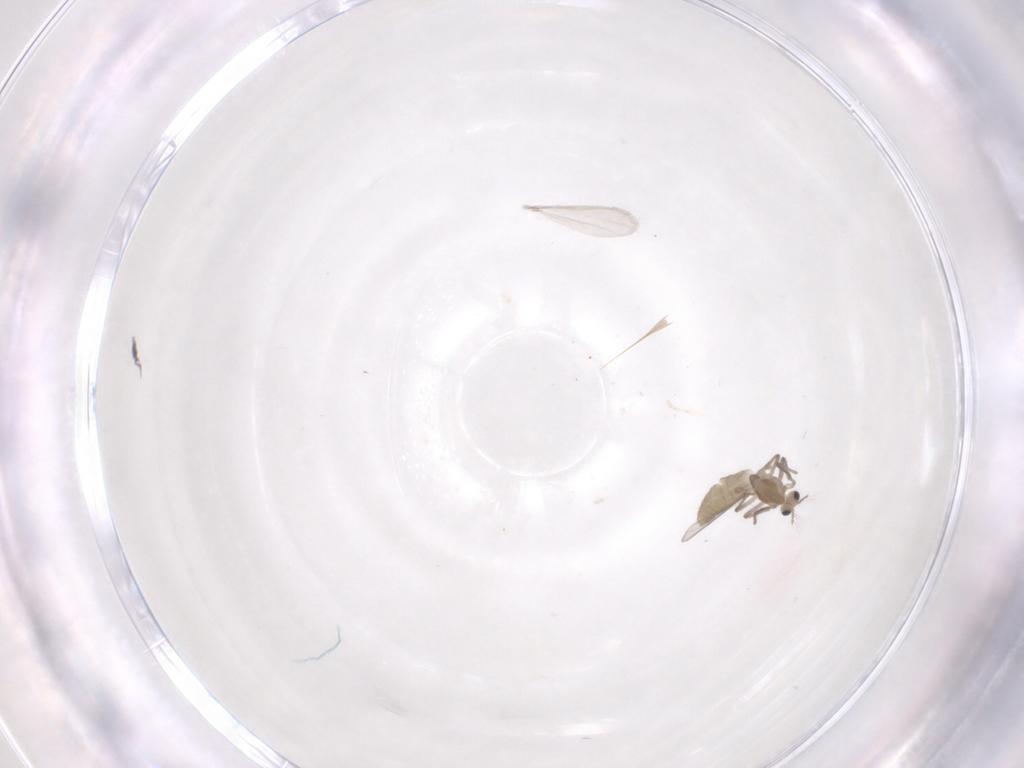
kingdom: Animalia
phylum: Arthropoda
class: Insecta
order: Diptera
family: Chironomidae
